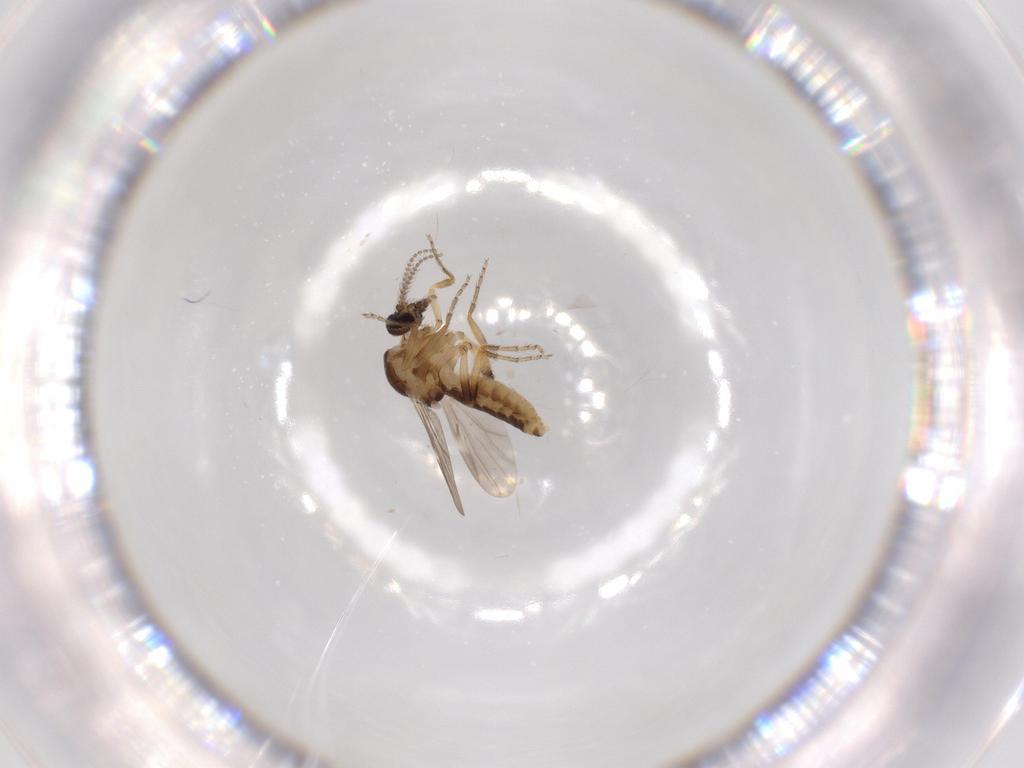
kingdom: Animalia
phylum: Arthropoda
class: Insecta
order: Diptera
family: Ceratopogonidae
